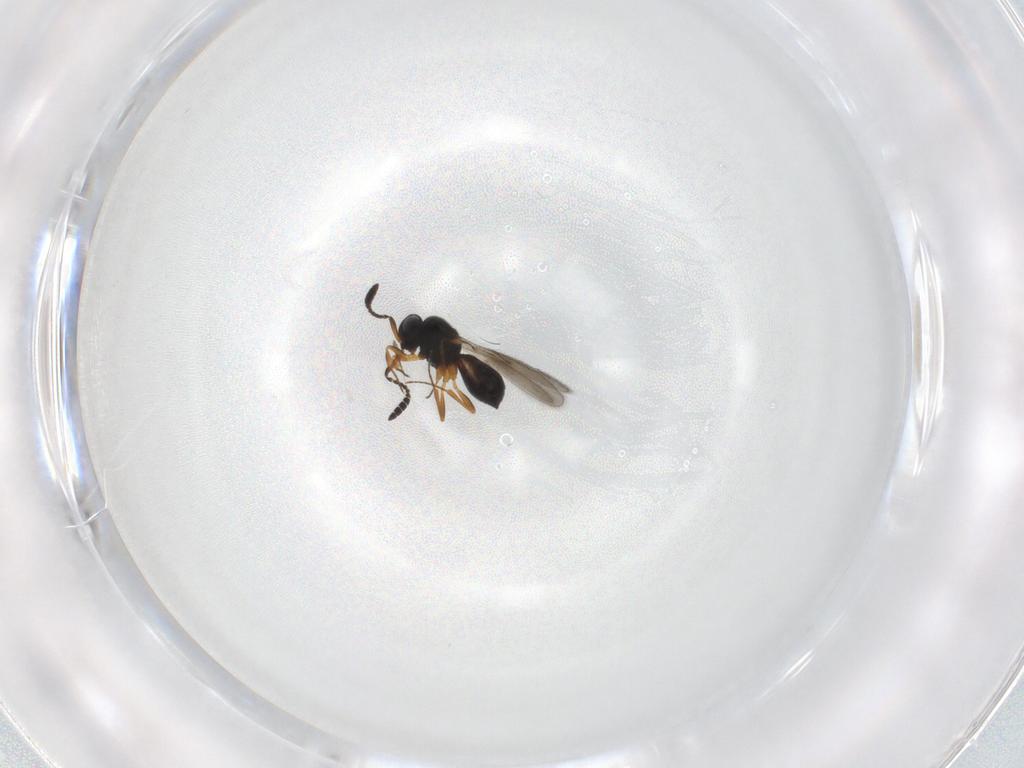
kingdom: Animalia
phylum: Arthropoda
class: Insecta
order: Hymenoptera
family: Scelionidae
